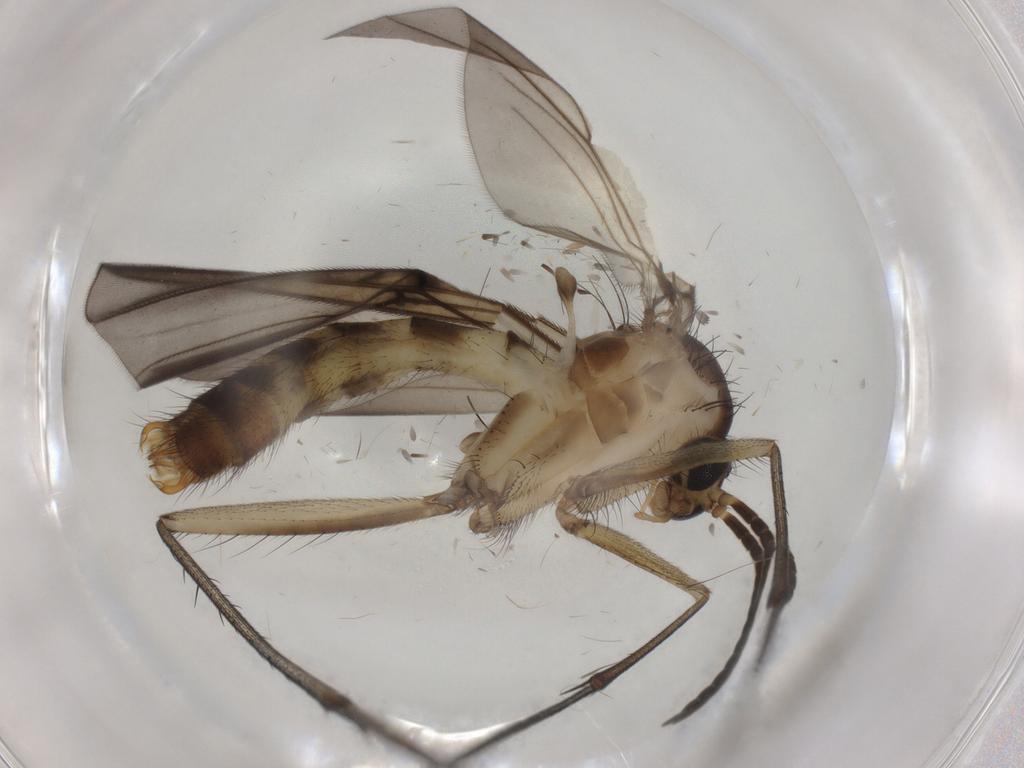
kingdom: Animalia
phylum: Arthropoda
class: Insecta
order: Diptera
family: Mycetophilidae
